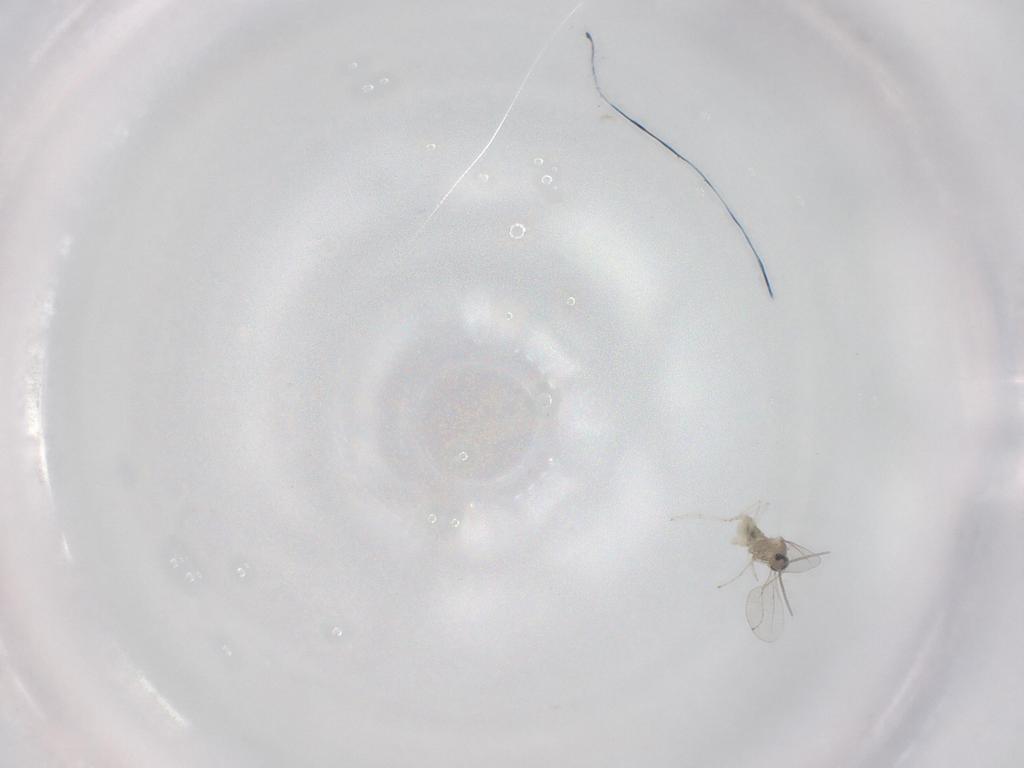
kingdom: Animalia
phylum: Arthropoda
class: Insecta
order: Diptera
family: Cecidomyiidae
